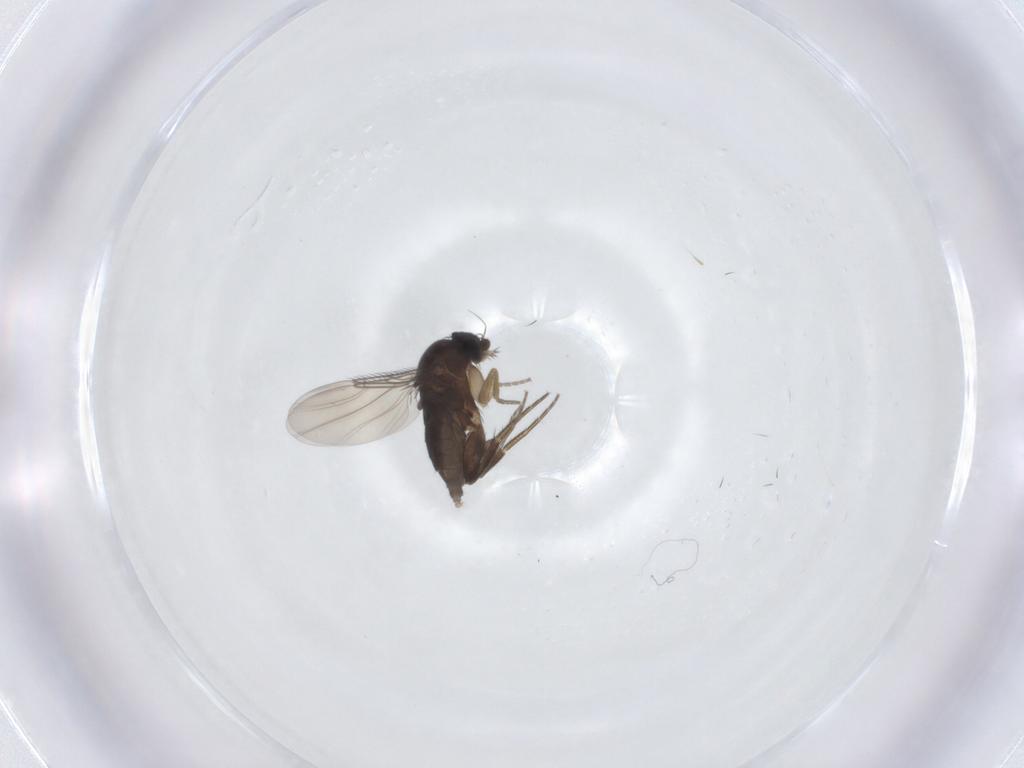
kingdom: Animalia
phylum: Arthropoda
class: Insecta
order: Diptera
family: Phoridae
